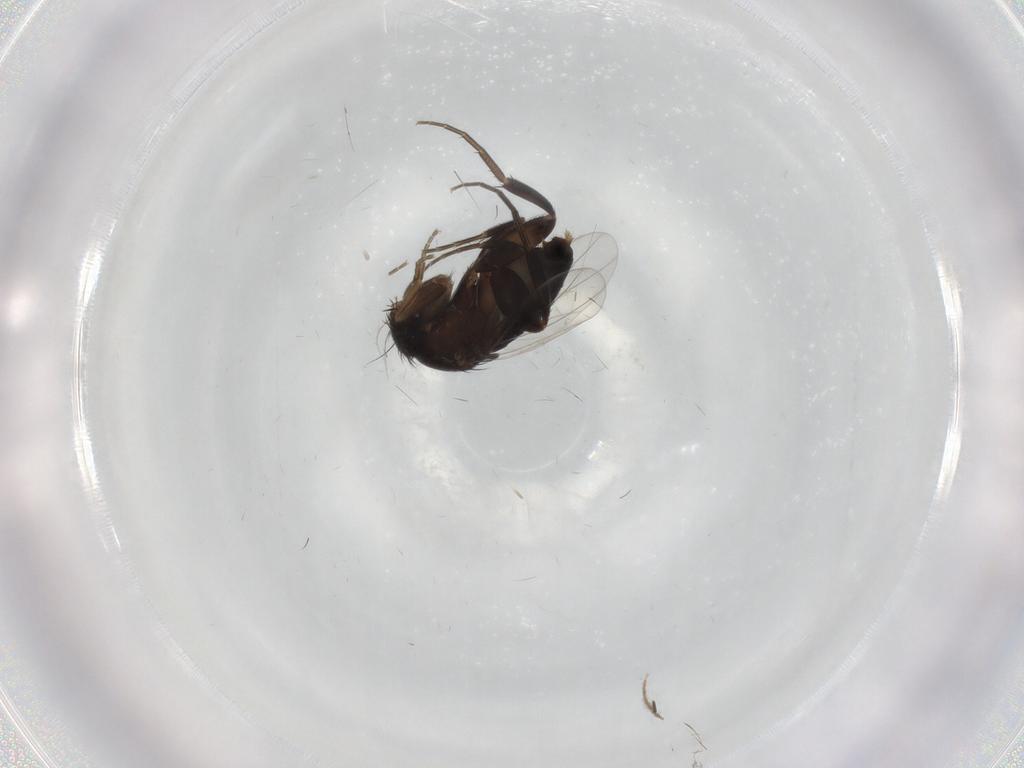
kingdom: Animalia
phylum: Arthropoda
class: Insecta
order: Diptera
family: Phoridae
